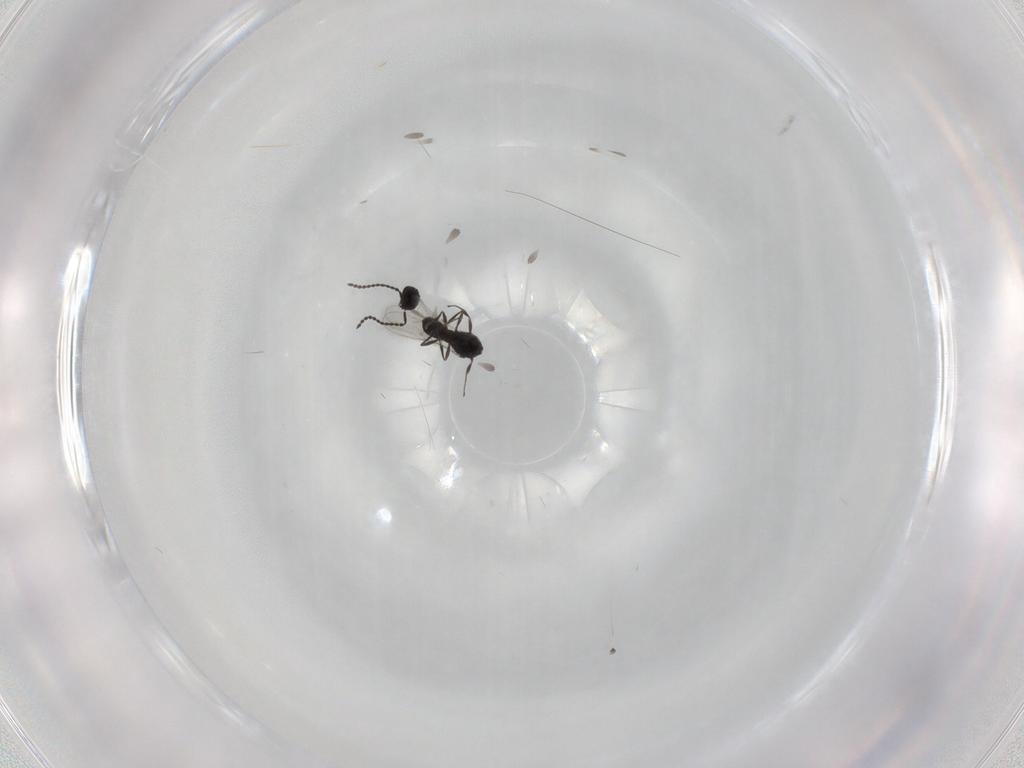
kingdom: Animalia
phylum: Arthropoda
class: Insecta
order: Hymenoptera
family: Scelionidae
